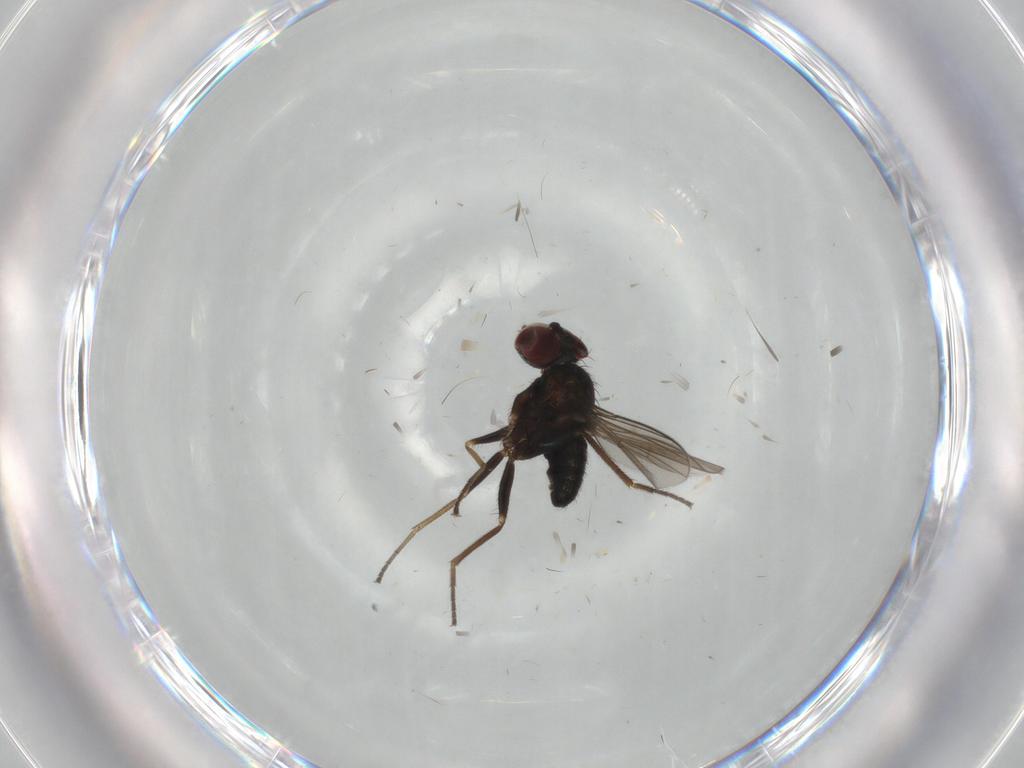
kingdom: Animalia
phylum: Arthropoda
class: Insecta
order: Diptera
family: Dolichopodidae
